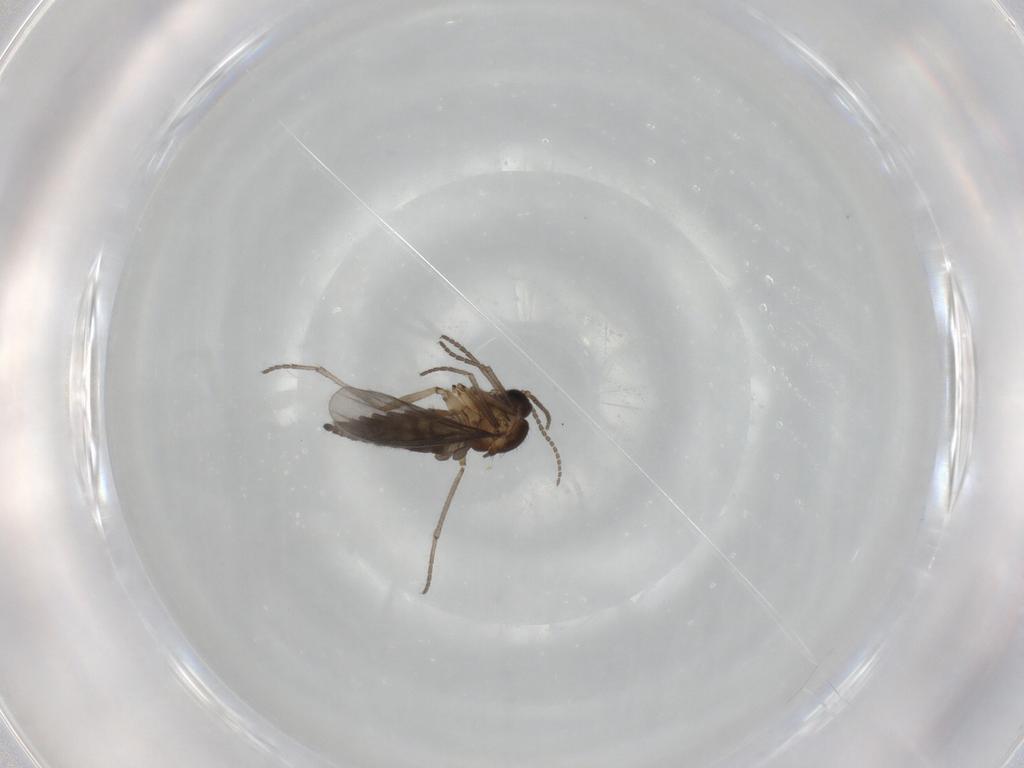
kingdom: Animalia
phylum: Arthropoda
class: Insecta
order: Diptera
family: Sciaridae
